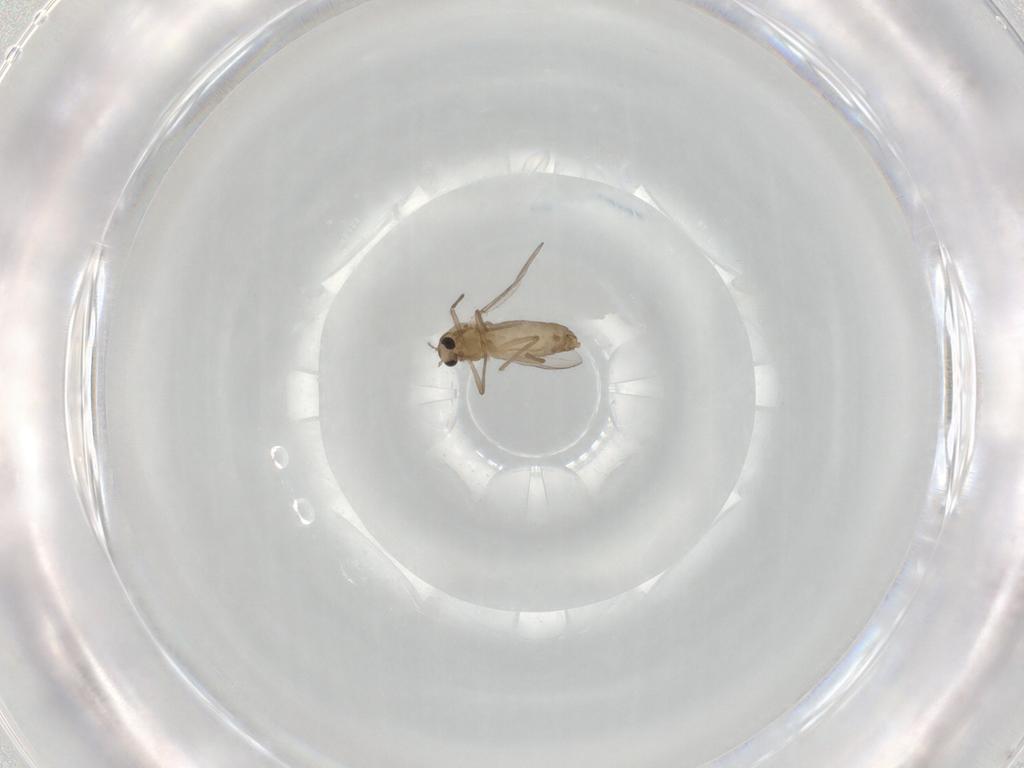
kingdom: Animalia
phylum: Arthropoda
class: Insecta
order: Diptera
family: Chironomidae
